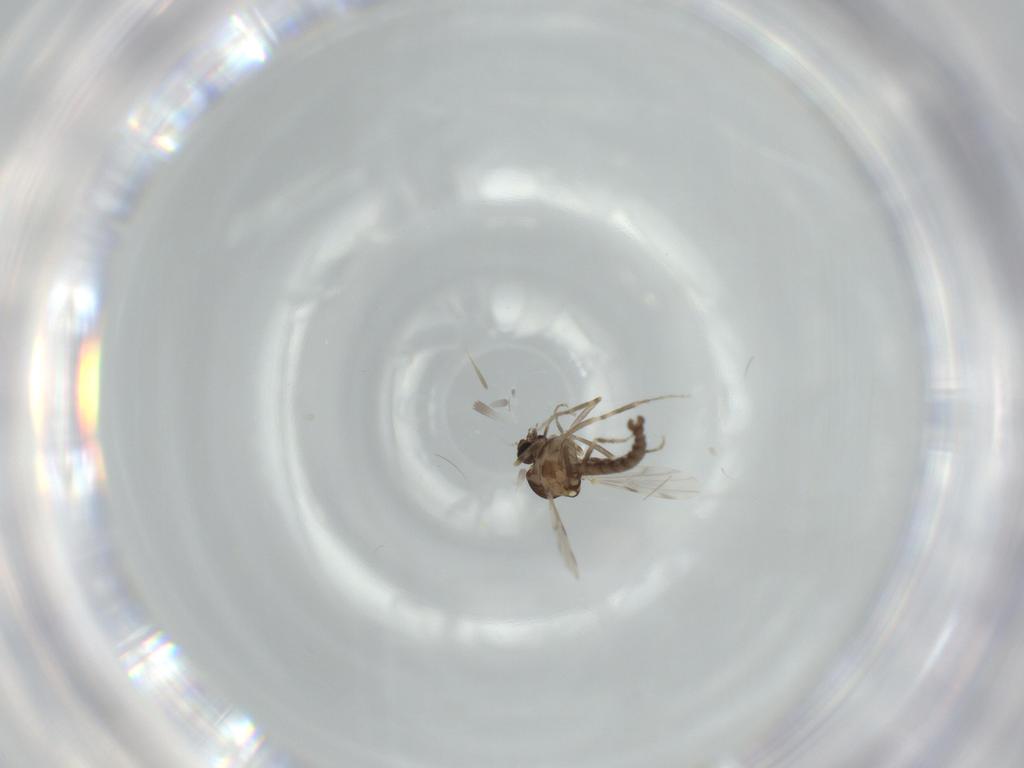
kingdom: Animalia
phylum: Arthropoda
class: Insecta
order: Diptera
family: Ceratopogonidae
